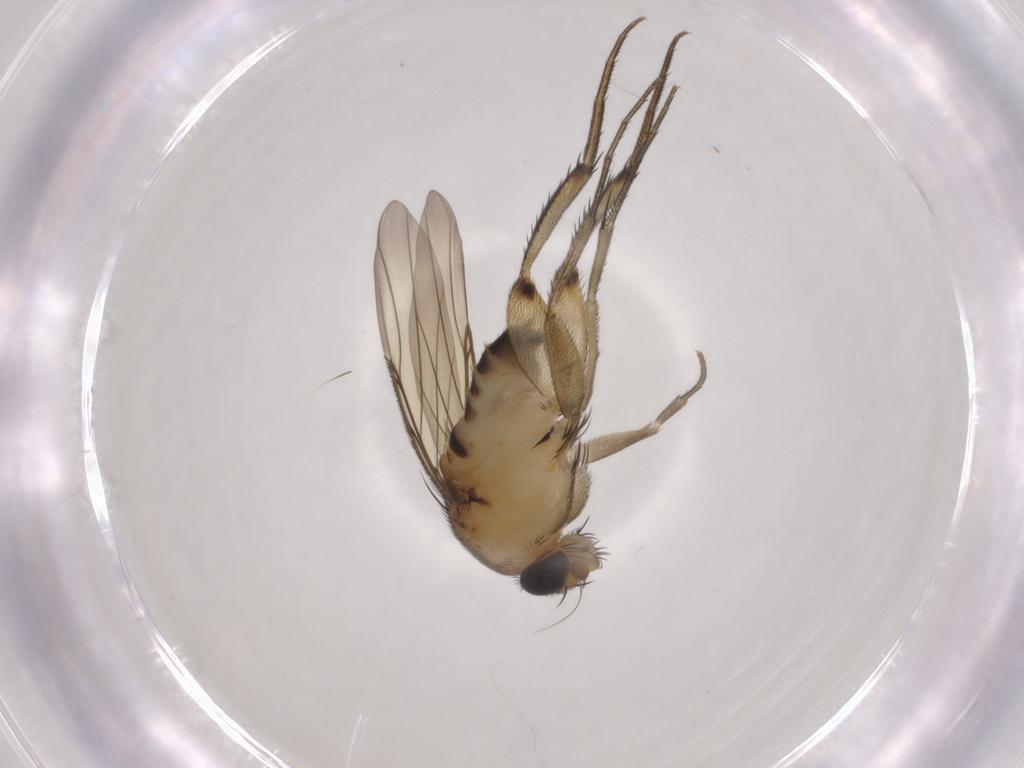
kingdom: Animalia
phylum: Arthropoda
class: Insecta
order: Diptera
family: Phoridae
